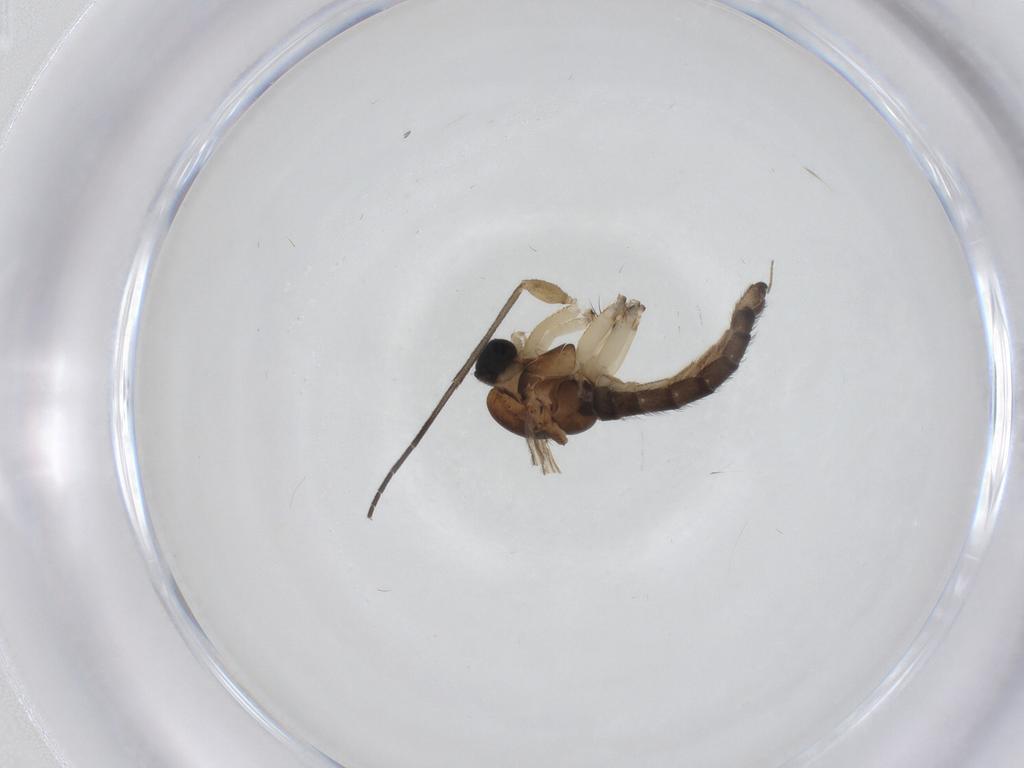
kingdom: Animalia
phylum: Arthropoda
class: Insecta
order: Diptera
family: Sciaridae
